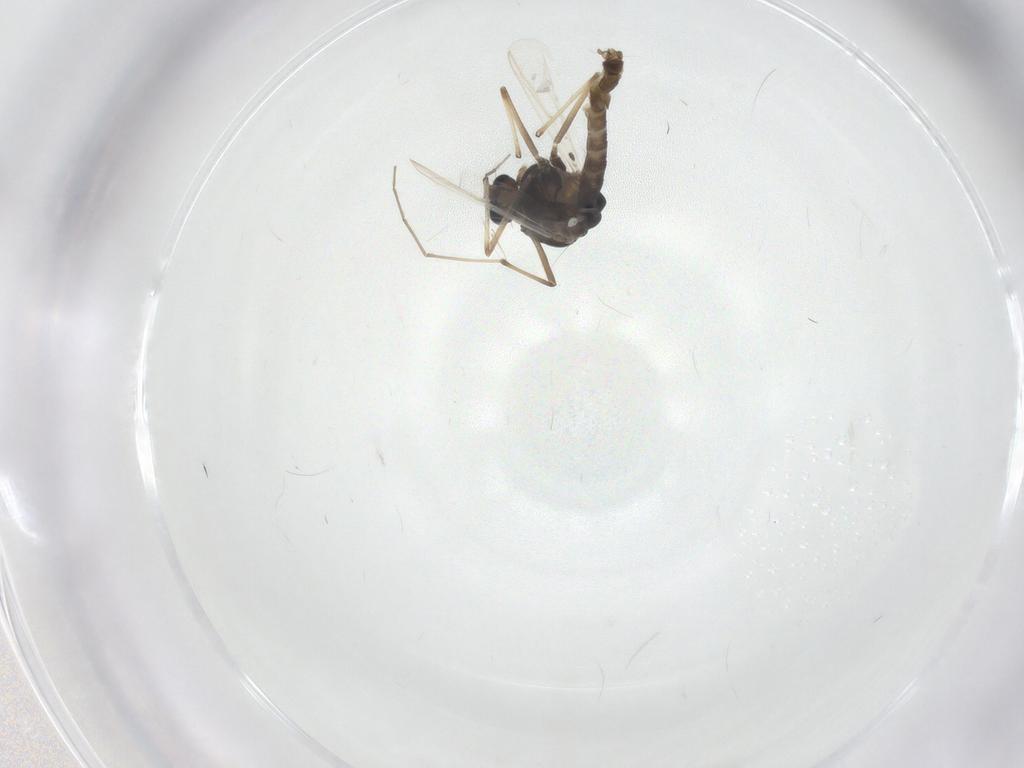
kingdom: Animalia
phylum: Arthropoda
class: Insecta
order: Diptera
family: Chironomidae
